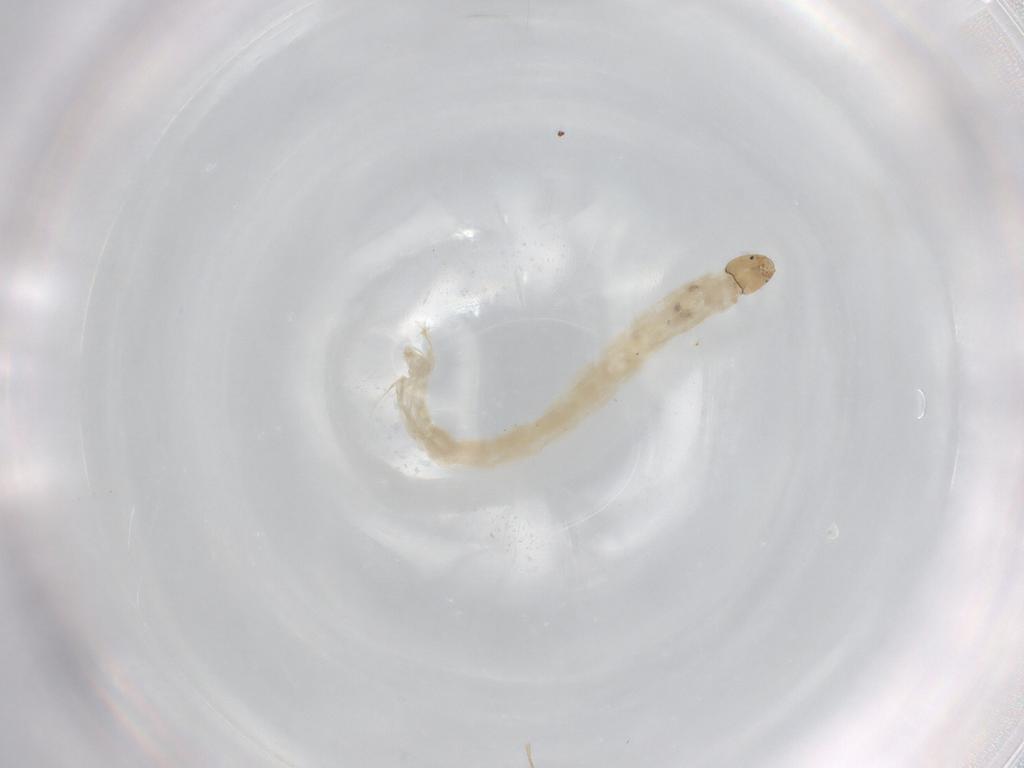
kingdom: Animalia
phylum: Arthropoda
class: Insecta
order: Diptera
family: Chironomidae
